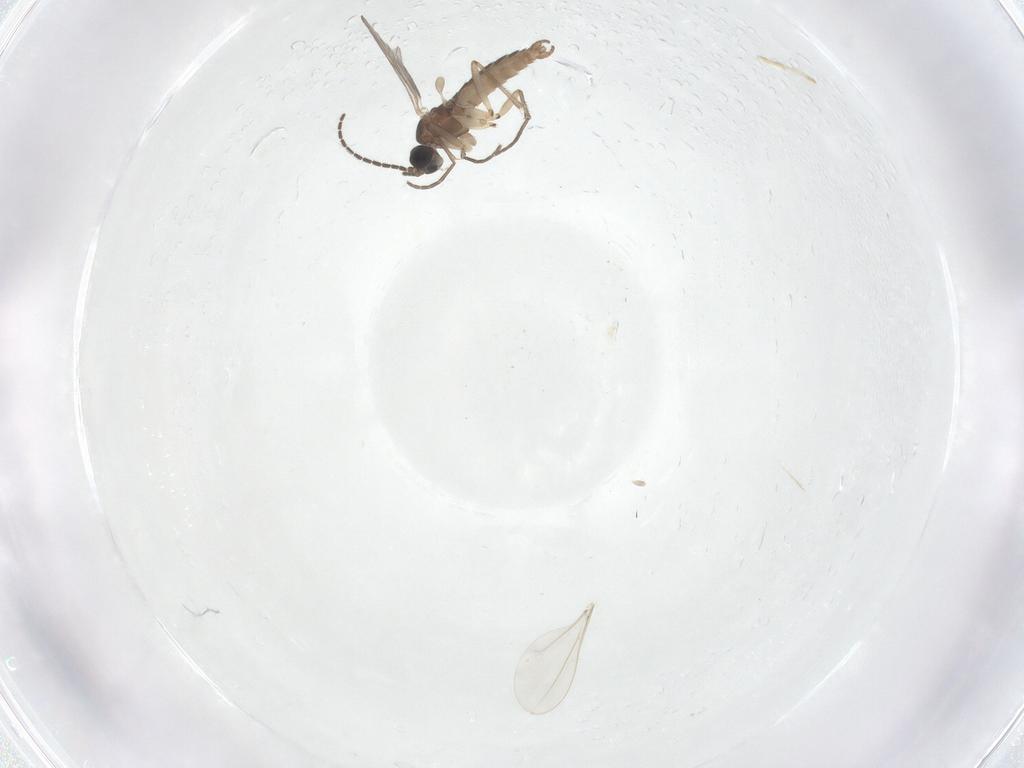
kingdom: Animalia
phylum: Arthropoda
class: Insecta
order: Diptera
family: Sciaridae
